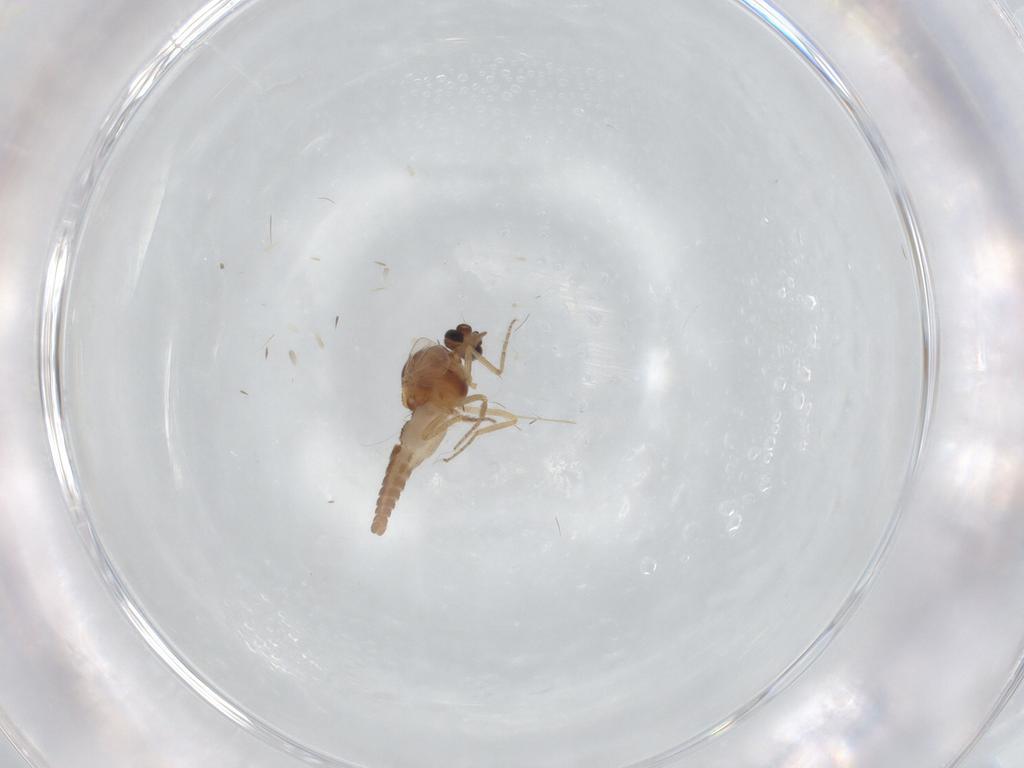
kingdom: Animalia
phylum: Arthropoda
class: Insecta
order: Diptera
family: Ceratopogonidae
